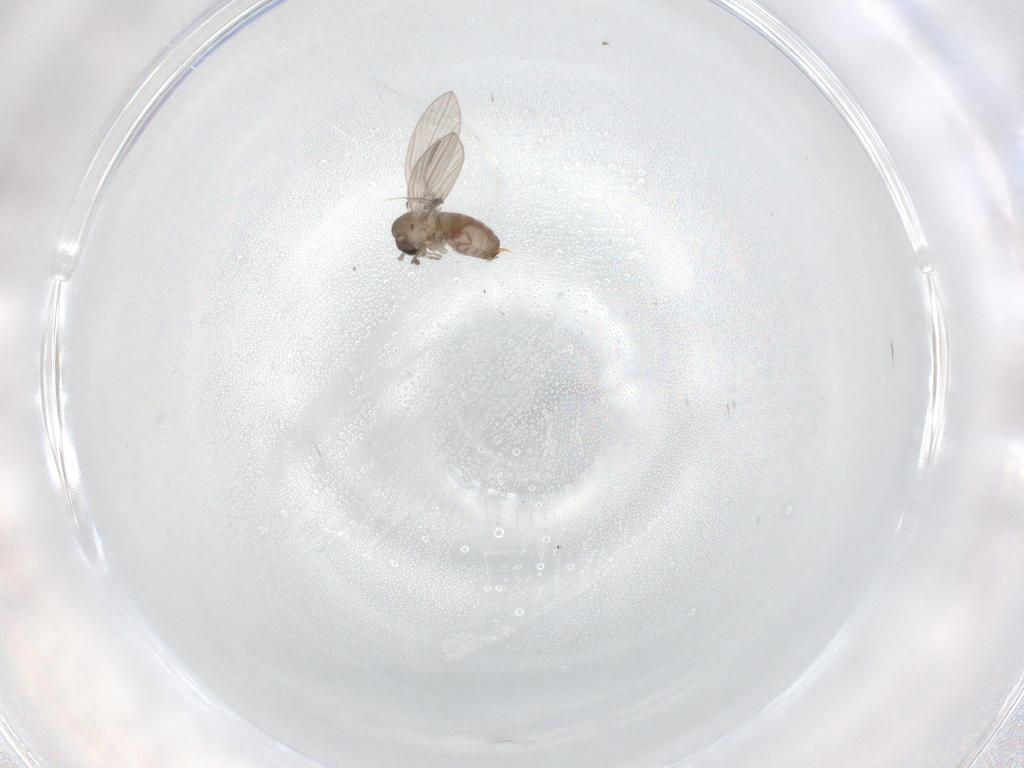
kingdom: Animalia
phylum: Arthropoda
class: Insecta
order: Diptera
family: Psychodidae
